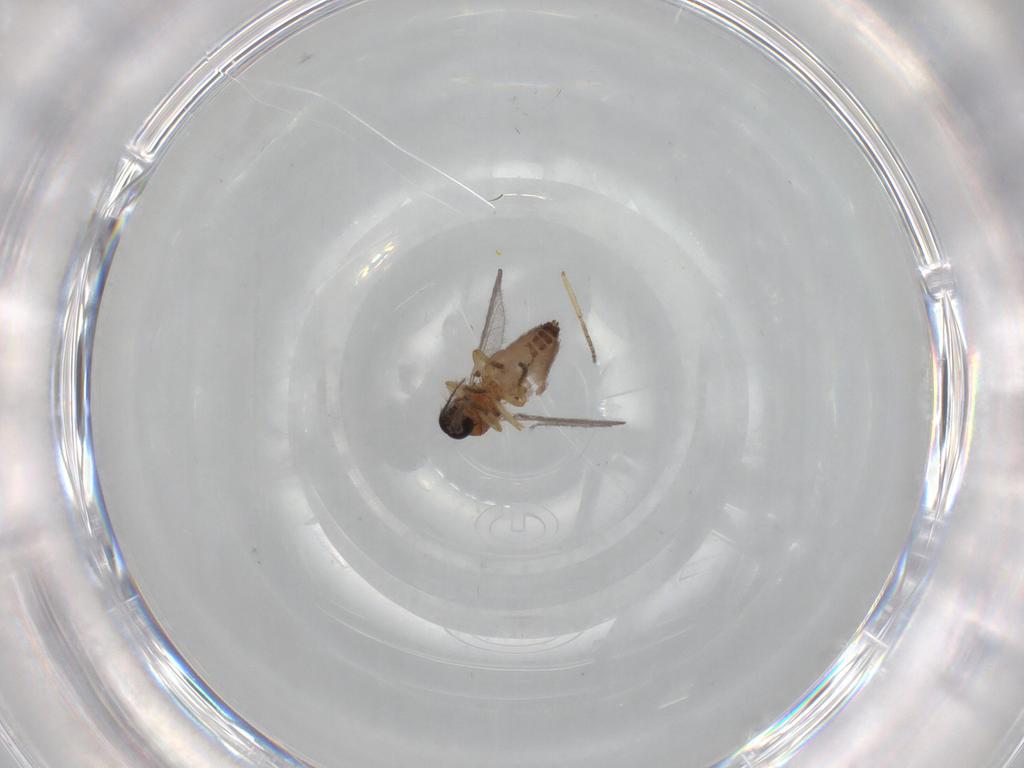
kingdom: Animalia
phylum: Arthropoda
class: Insecta
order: Diptera
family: Ceratopogonidae
